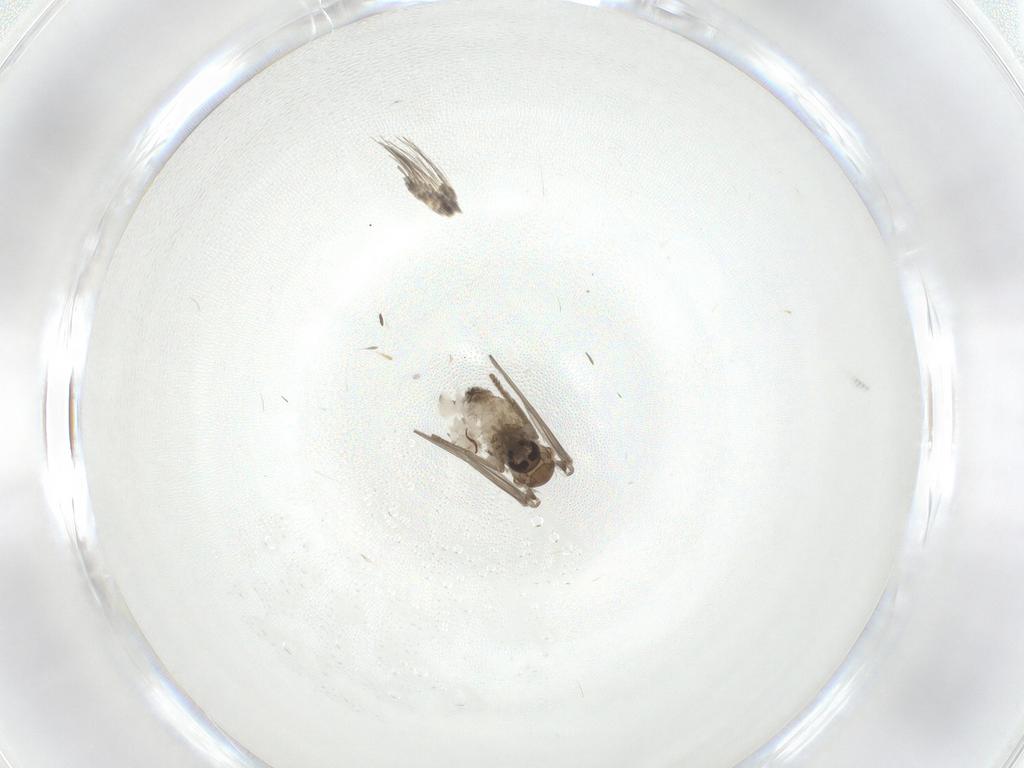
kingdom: Animalia
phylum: Arthropoda
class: Insecta
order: Diptera
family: Psychodidae
